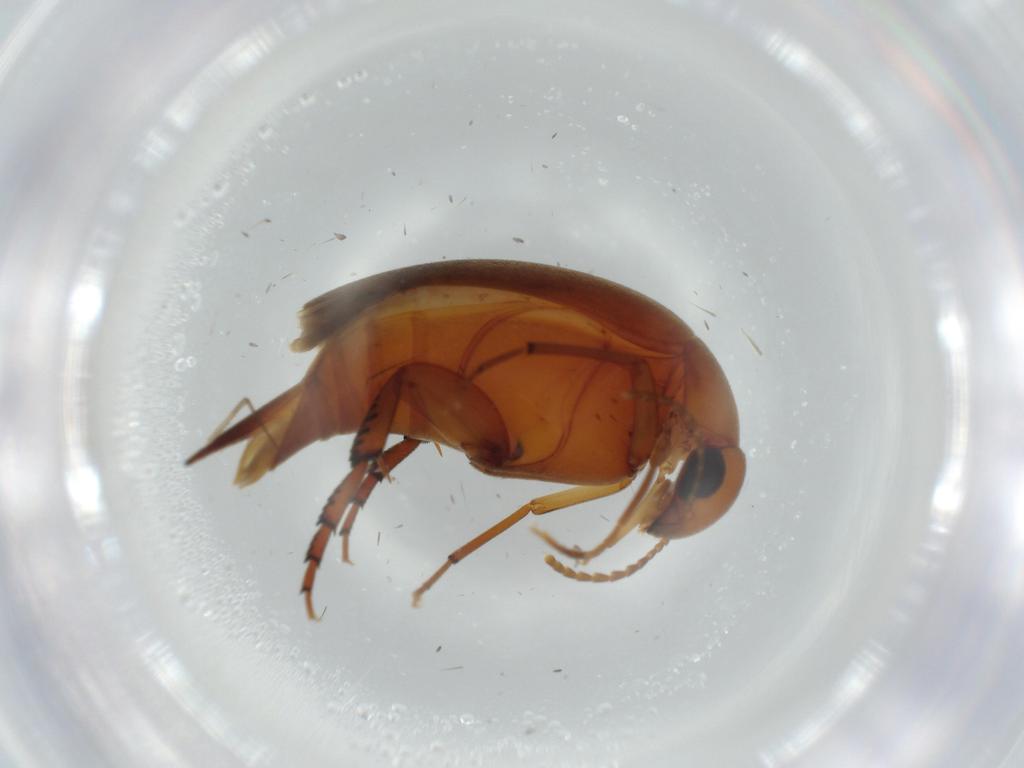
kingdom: Animalia
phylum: Arthropoda
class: Insecta
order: Coleoptera
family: Mordellidae
